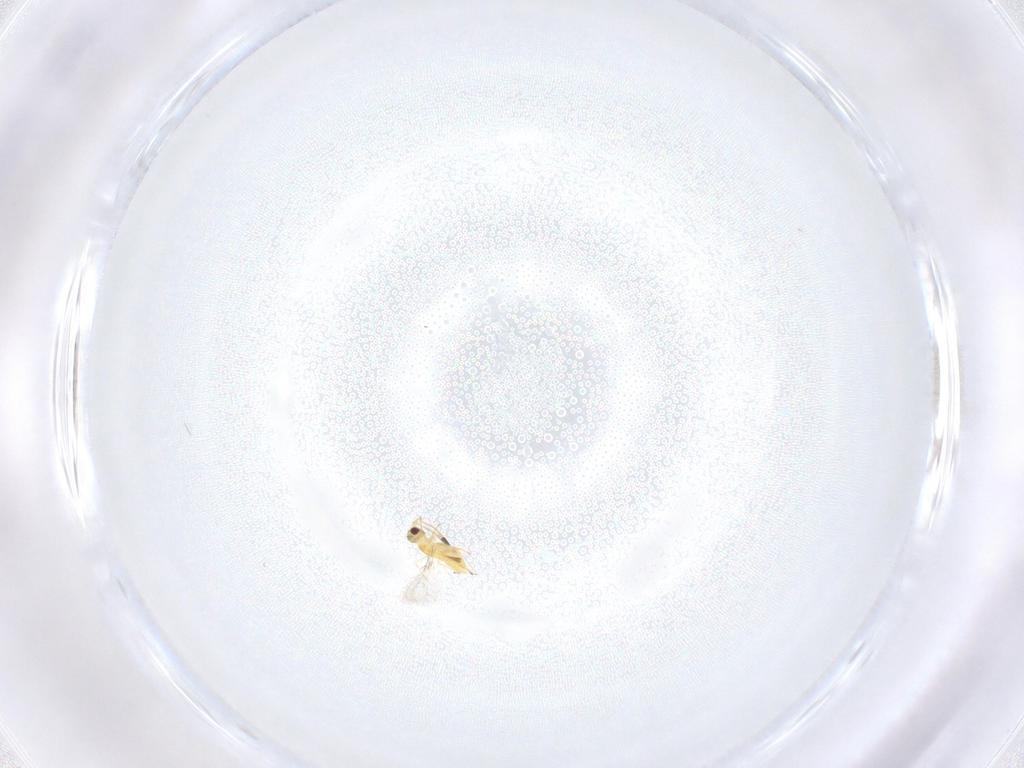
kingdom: Animalia
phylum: Arthropoda
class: Insecta
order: Hymenoptera
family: Mymaridae
